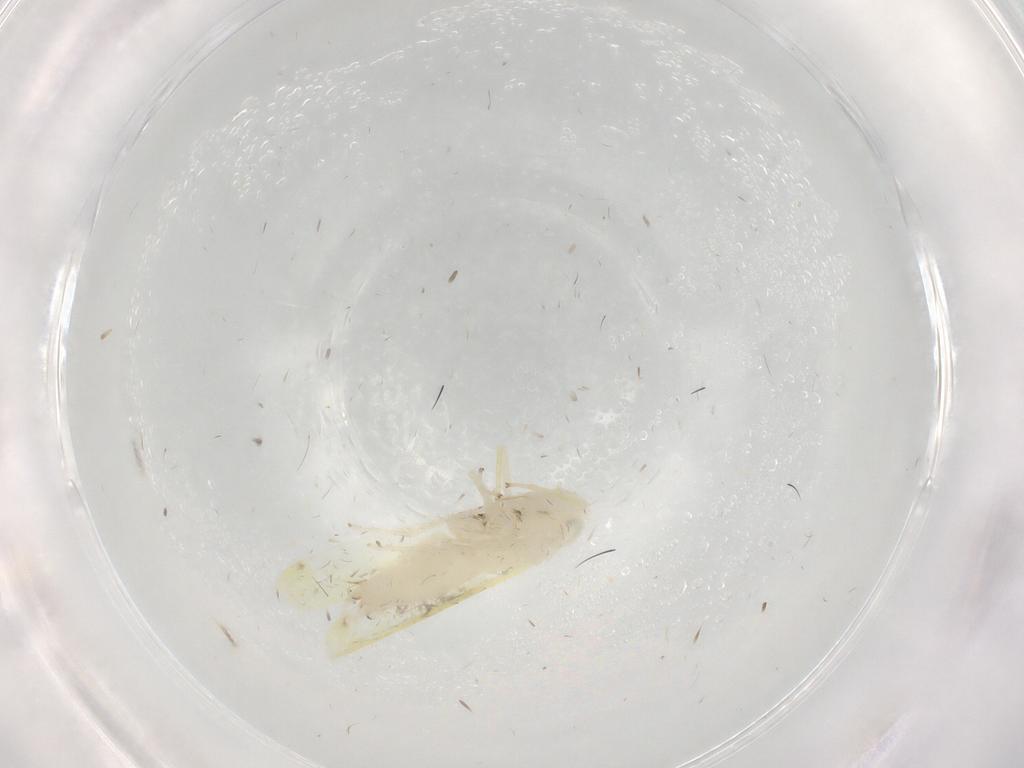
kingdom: Animalia
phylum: Arthropoda
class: Insecta
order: Hemiptera
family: Cicadellidae
